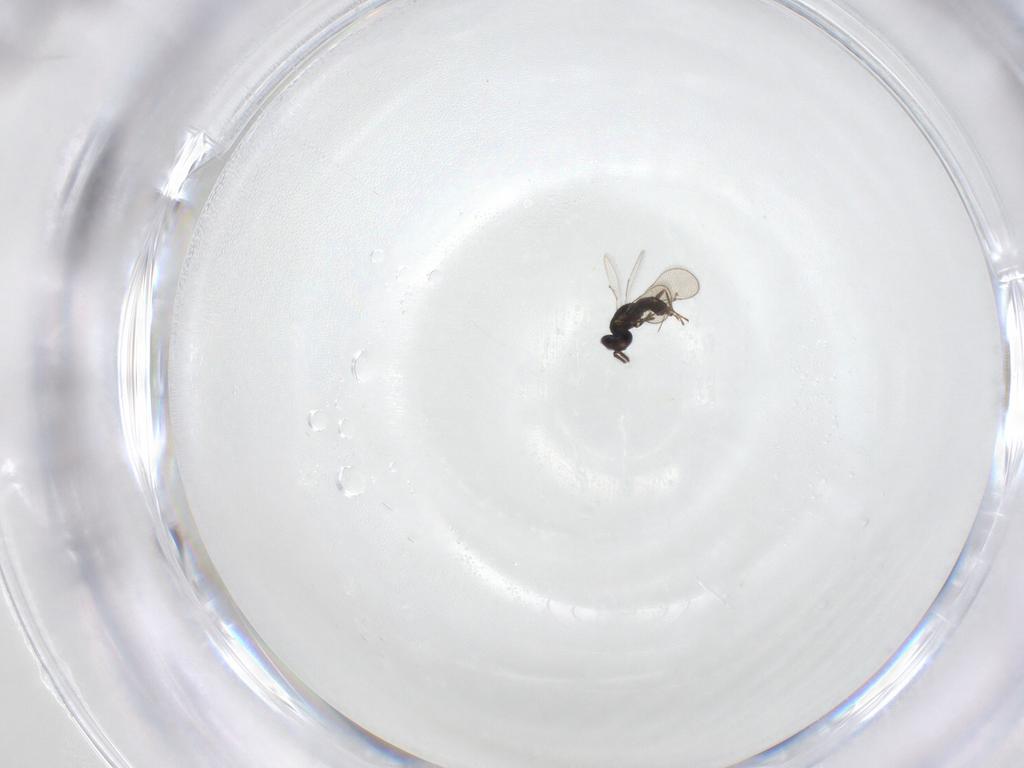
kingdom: Animalia
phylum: Arthropoda
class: Insecta
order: Hymenoptera
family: Eulophidae
